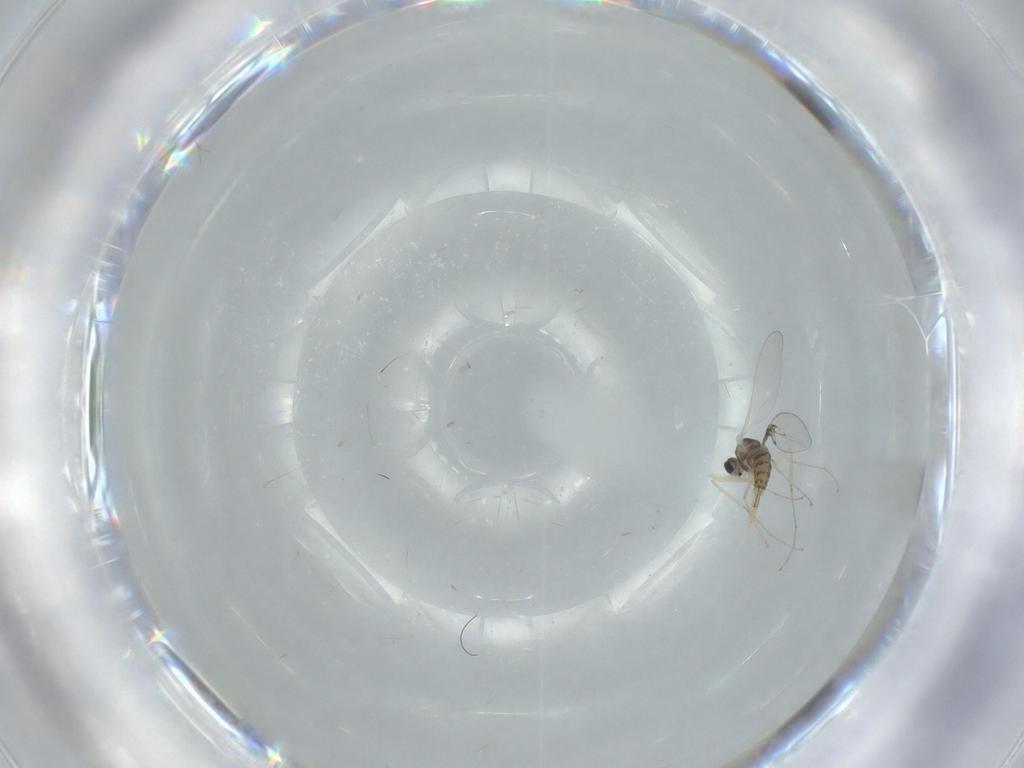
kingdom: Animalia
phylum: Arthropoda
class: Insecta
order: Diptera
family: Cecidomyiidae
